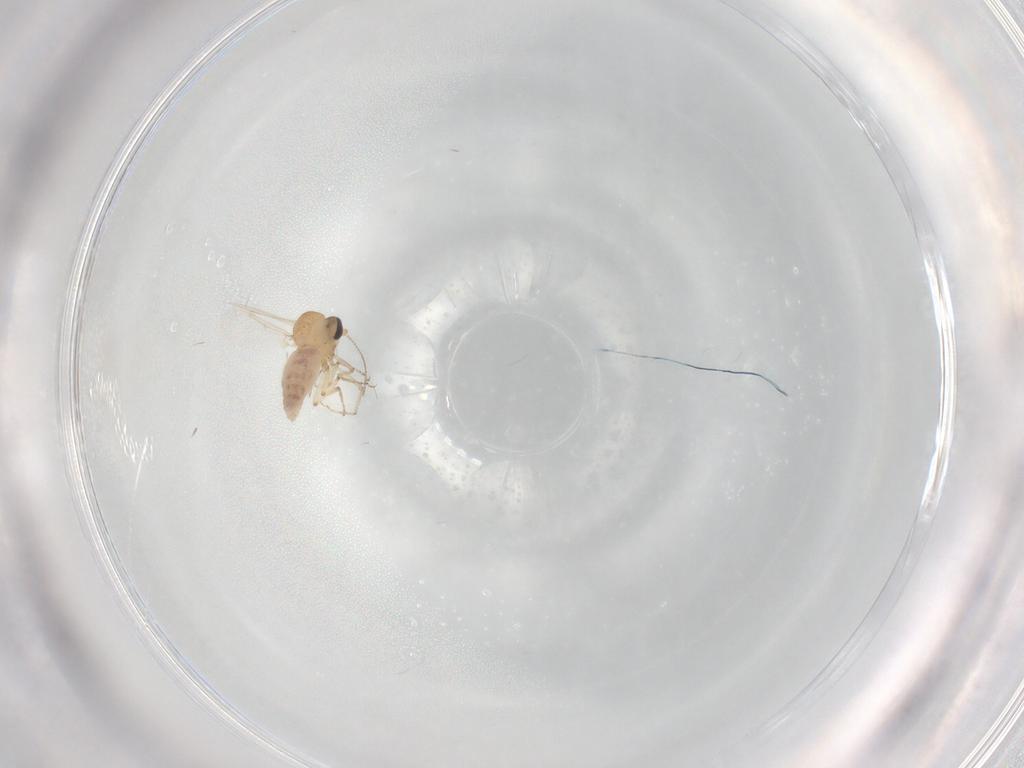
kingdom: Animalia
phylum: Arthropoda
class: Insecta
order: Diptera
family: Ceratopogonidae
